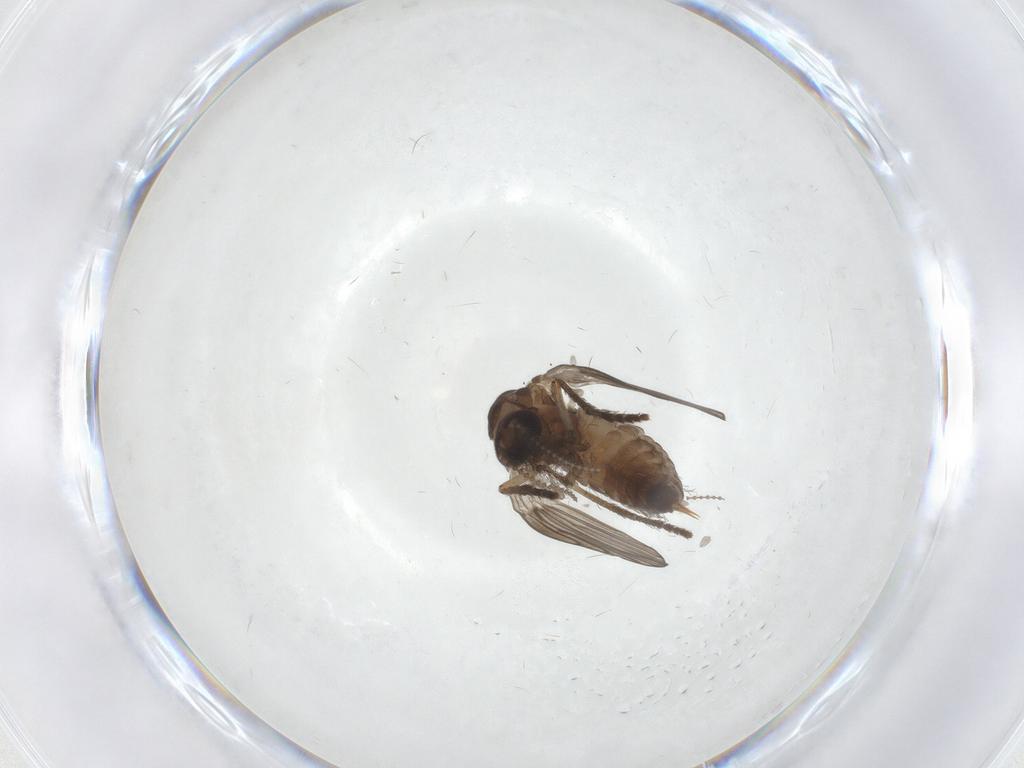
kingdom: Animalia
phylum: Arthropoda
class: Insecta
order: Diptera
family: Psychodidae
